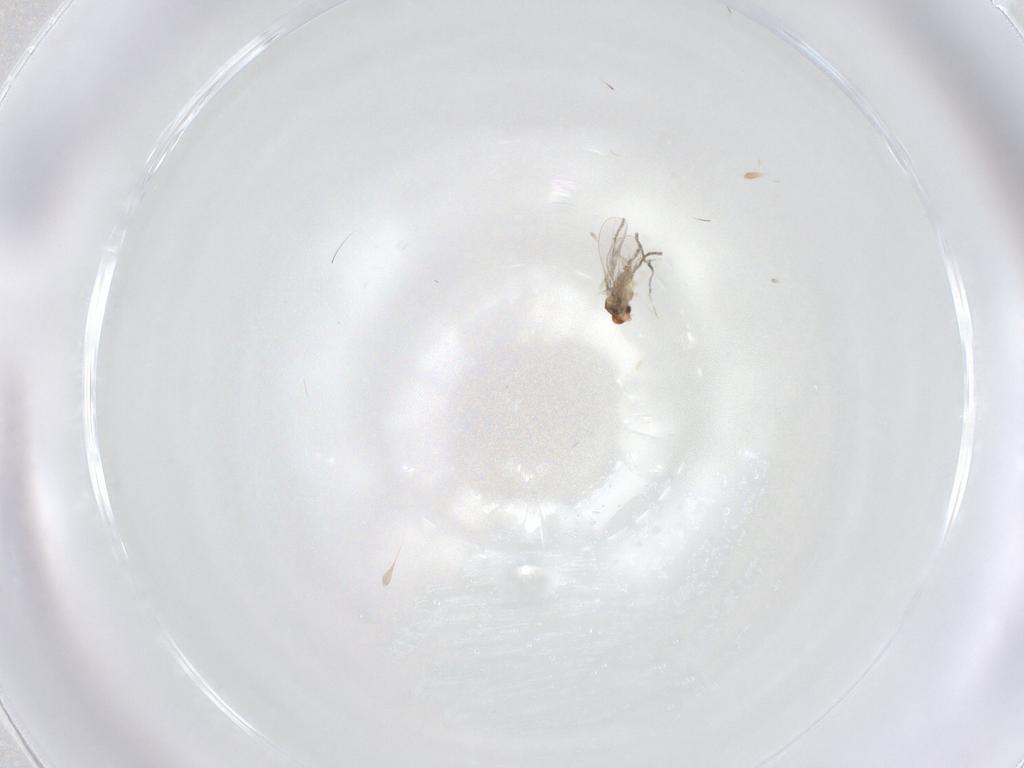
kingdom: Animalia
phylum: Arthropoda
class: Insecta
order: Diptera
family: Cecidomyiidae
